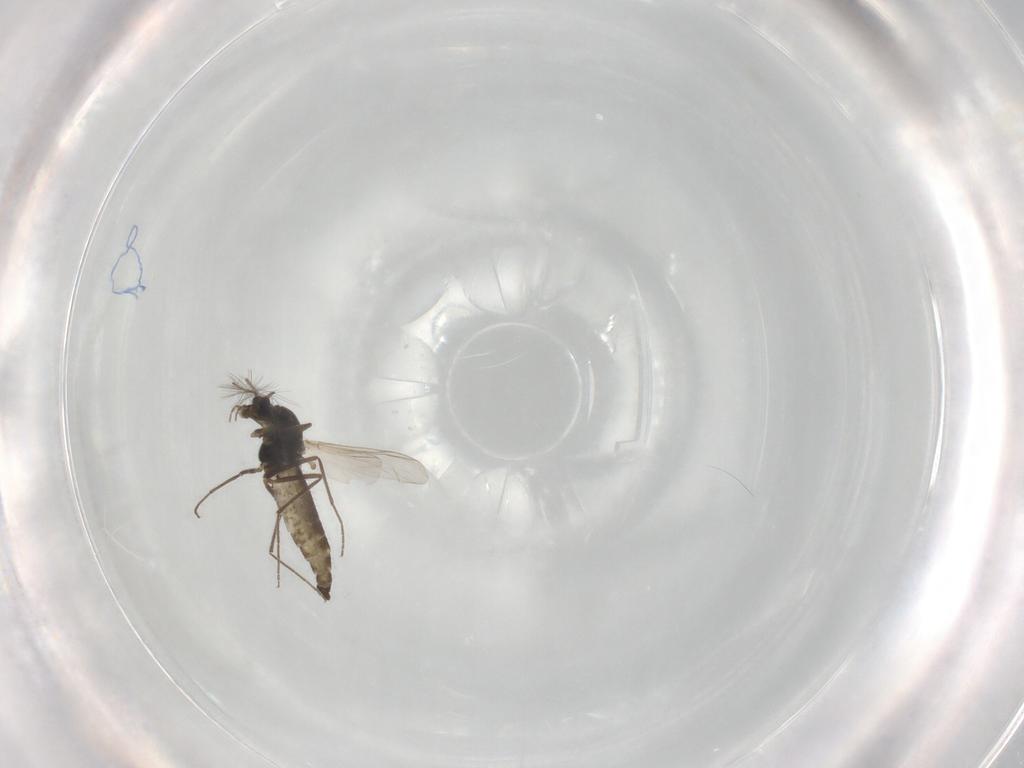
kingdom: Animalia
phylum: Arthropoda
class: Insecta
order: Diptera
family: Chironomidae
